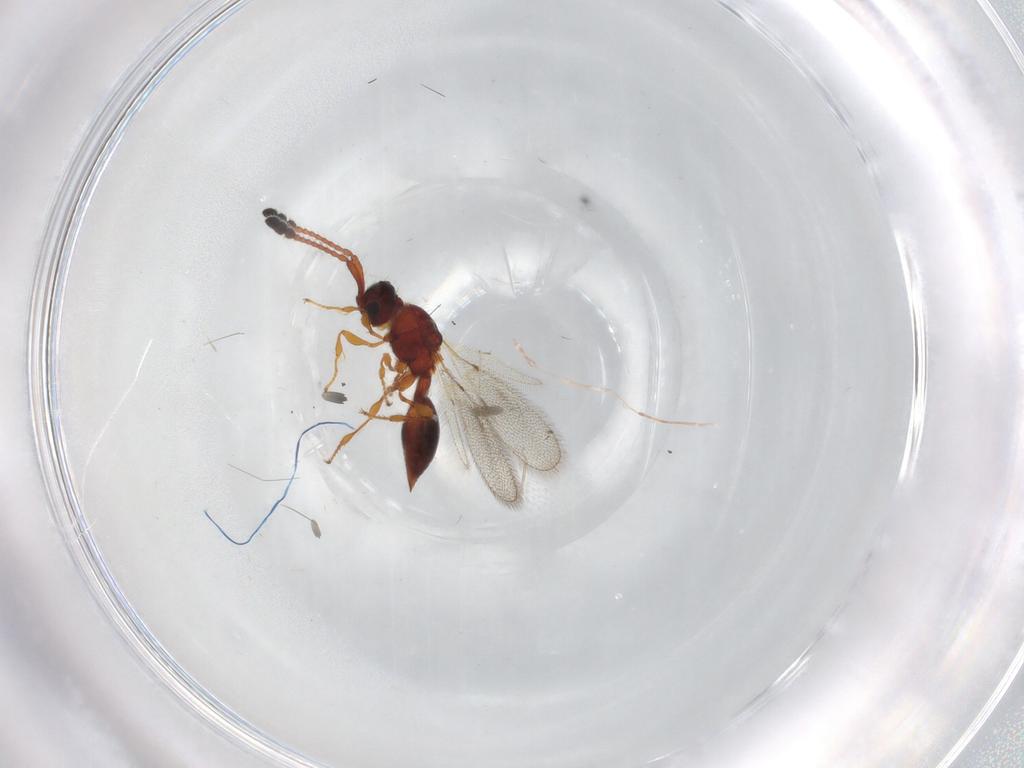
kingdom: Animalia
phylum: Arthropoda
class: Insecta
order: Hymenoptera
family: Diapriidae
